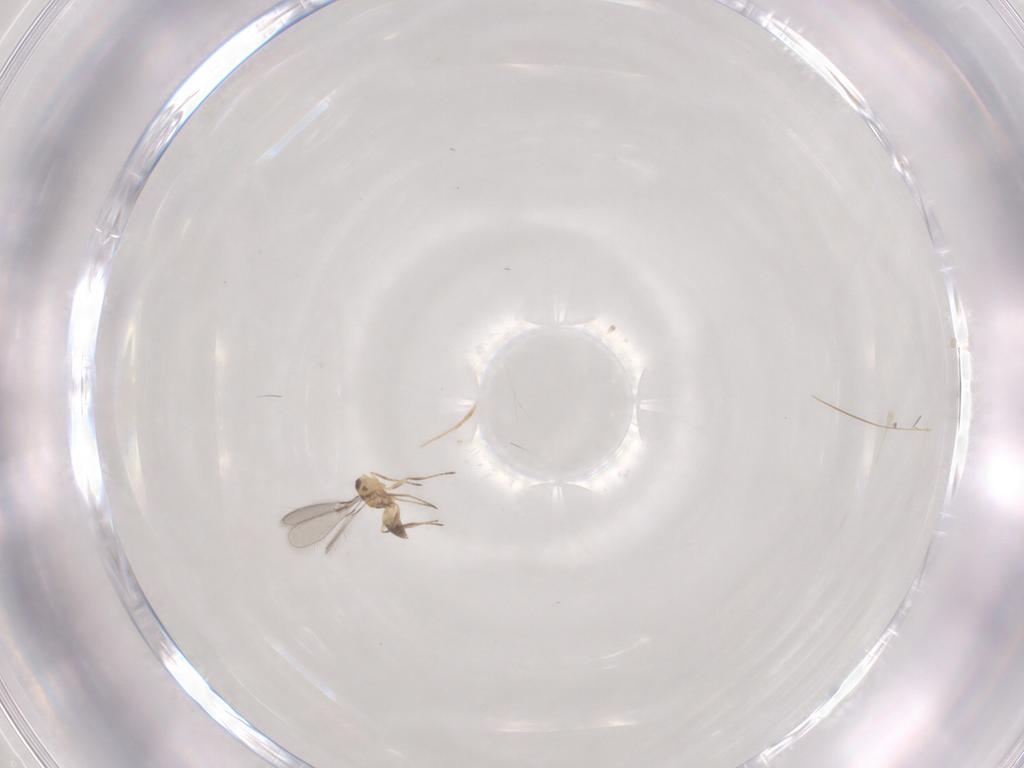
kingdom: Animalia
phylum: Arthropoda
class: Insecta
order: Hymenoptera
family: Mymaridae
